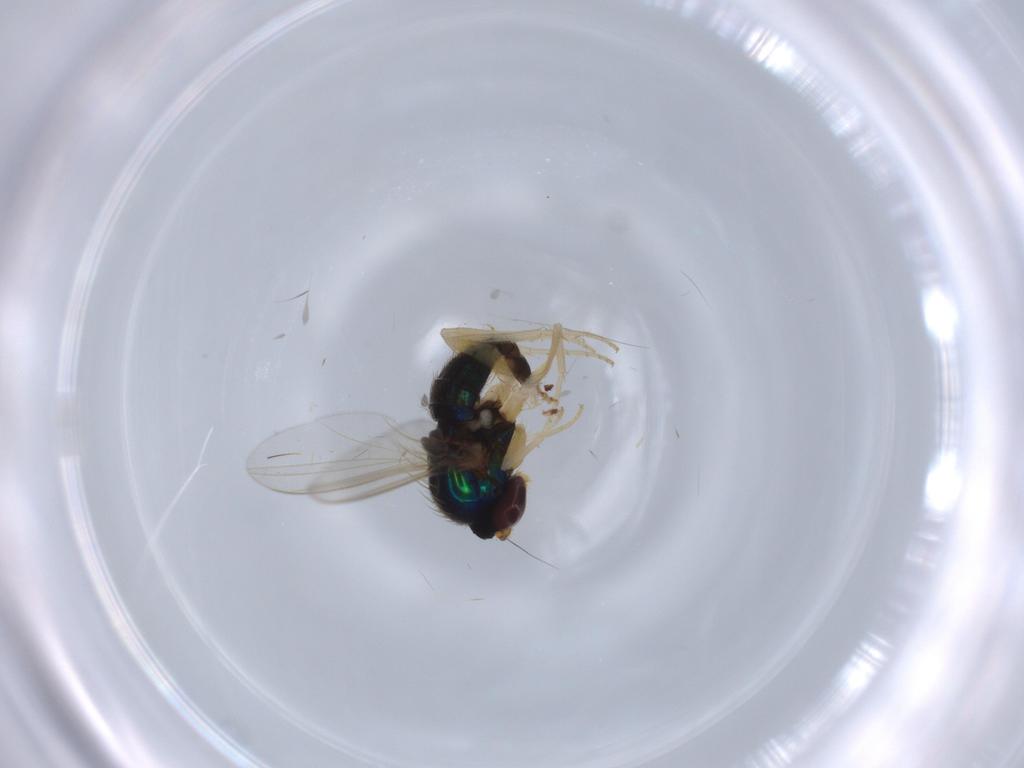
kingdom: Animalia
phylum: Arthropoda
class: Insecta
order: Diptera
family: Dolichopodidae
